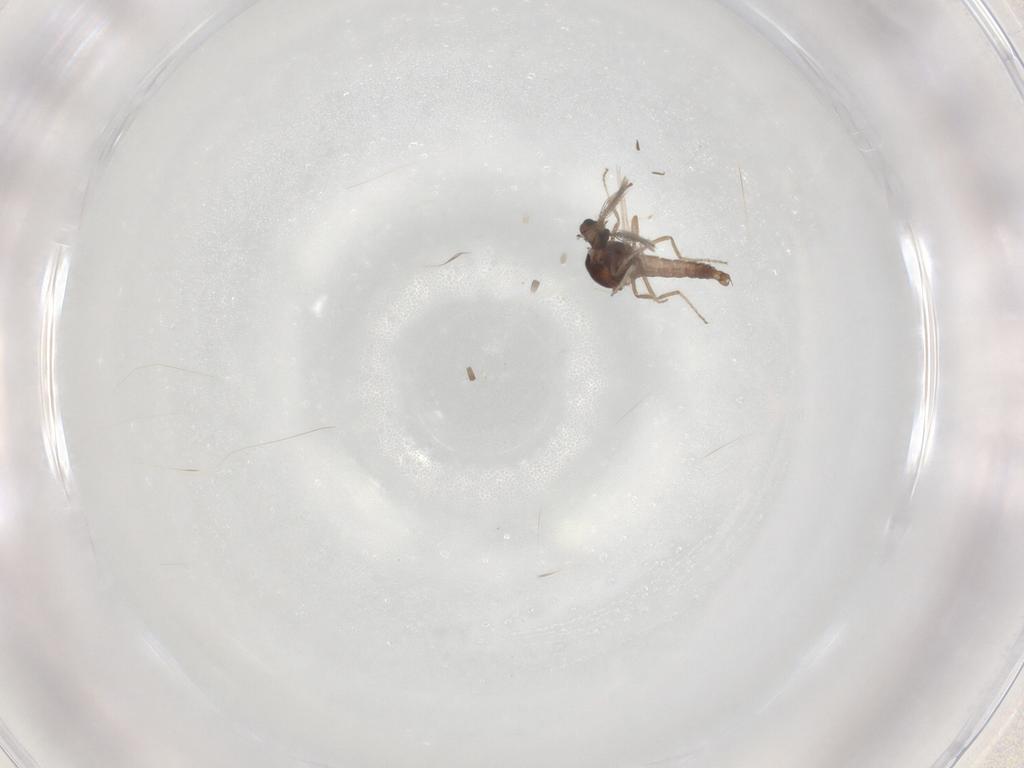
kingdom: Animalia
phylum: Arthropoda
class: Insecta
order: Diptera
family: Ceratopogonidae
